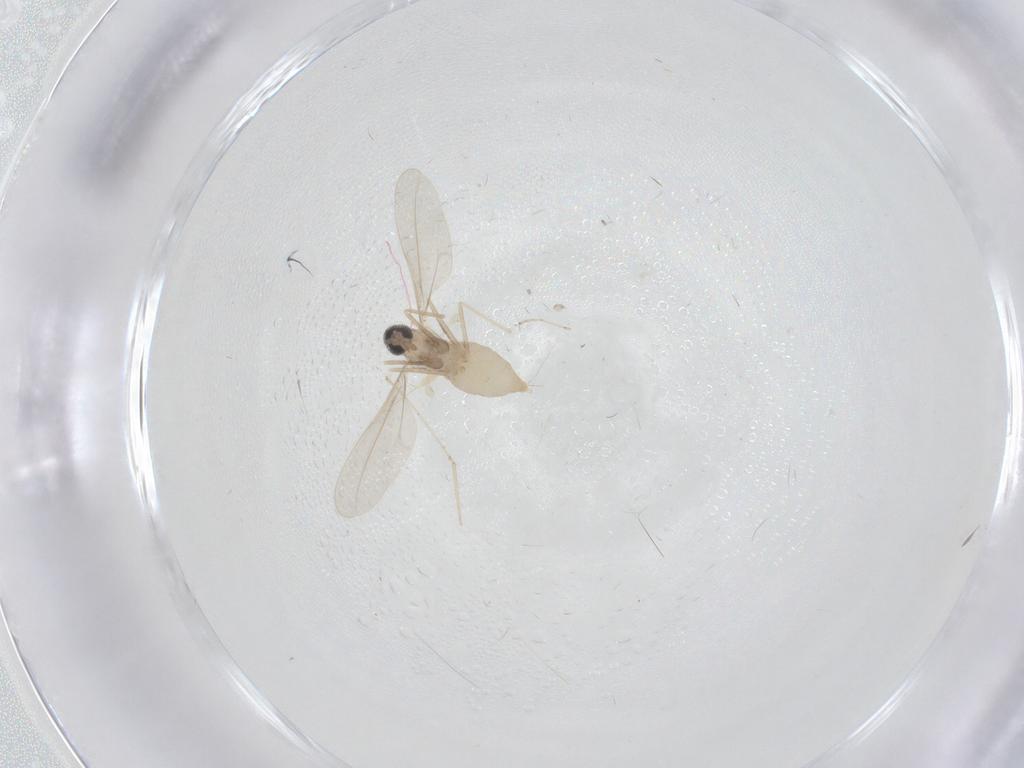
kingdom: Animalia
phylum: Arthropoda
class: Insecta
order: Diptera
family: Cecidomyiidae
